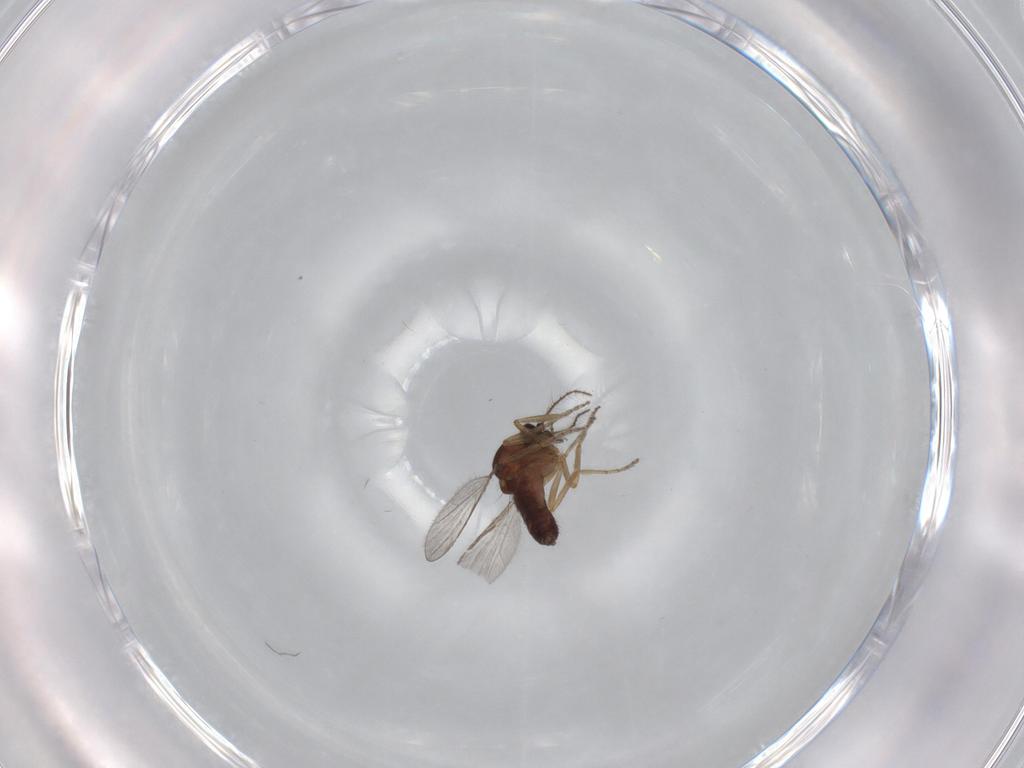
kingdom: Animalia
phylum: Arthropoda
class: Insecta
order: Diptera
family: Ceratopogonidae
